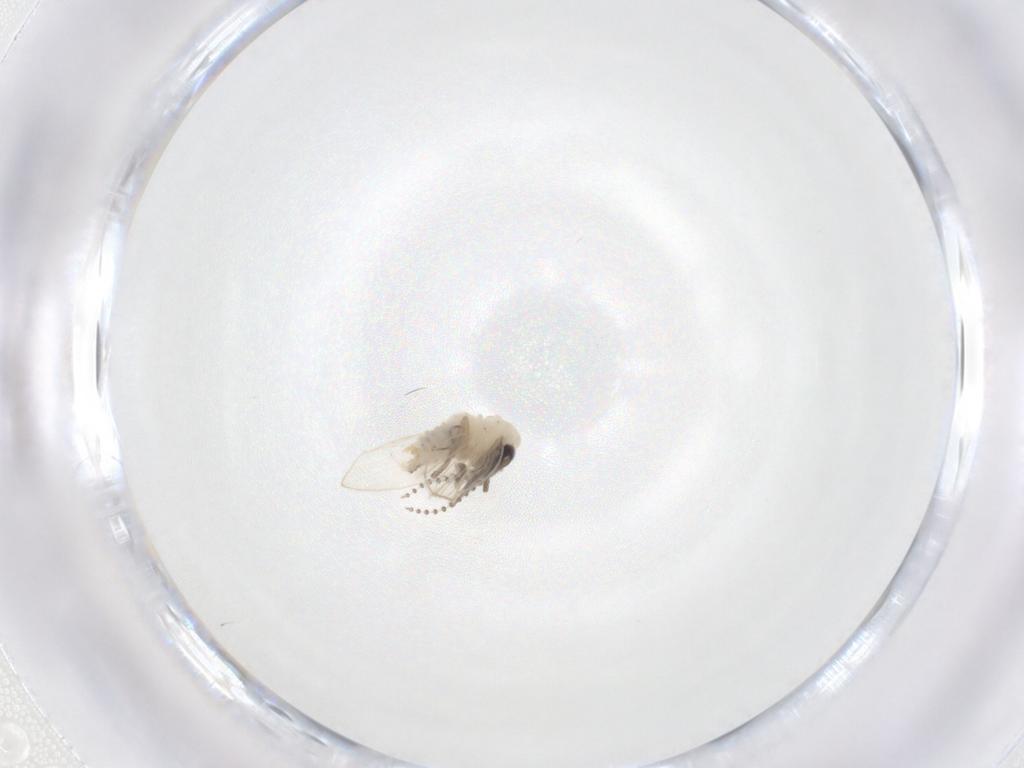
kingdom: Animalia
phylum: Arthropoda
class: Insecta
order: Diptera
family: Psychodidae
